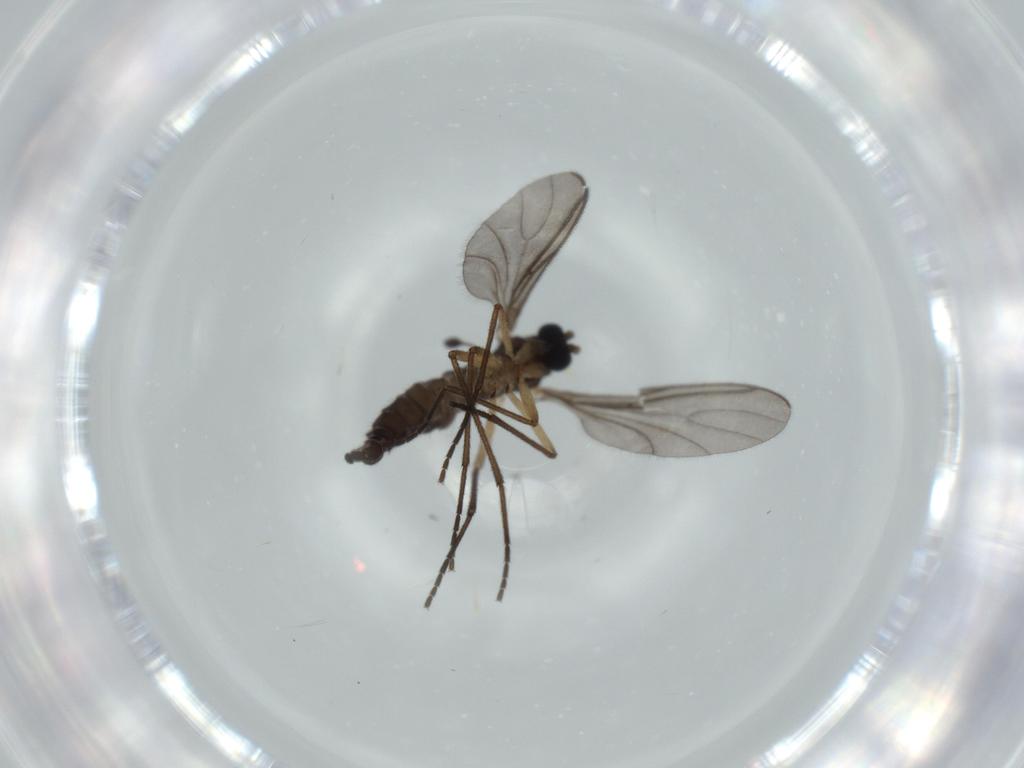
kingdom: Animalia
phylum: Arthropoda
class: Insecta
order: Diptera
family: Sciaridae
